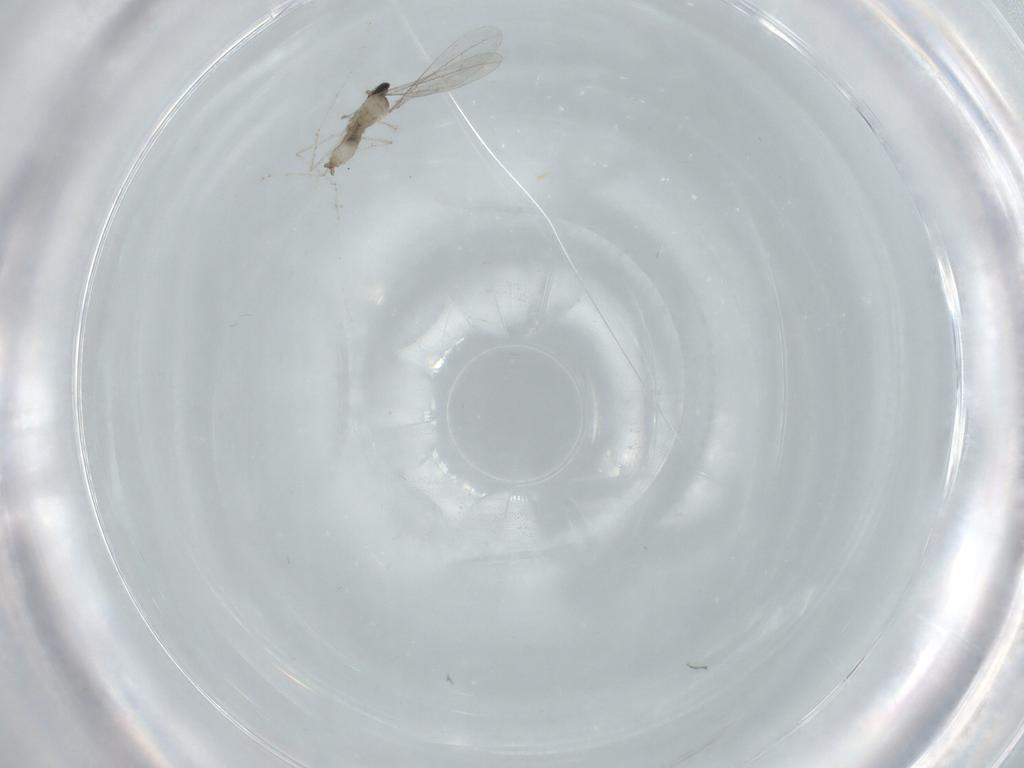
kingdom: Animalia
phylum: Arthropoda
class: Insecta
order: Diptera
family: Cecidomyiidae
